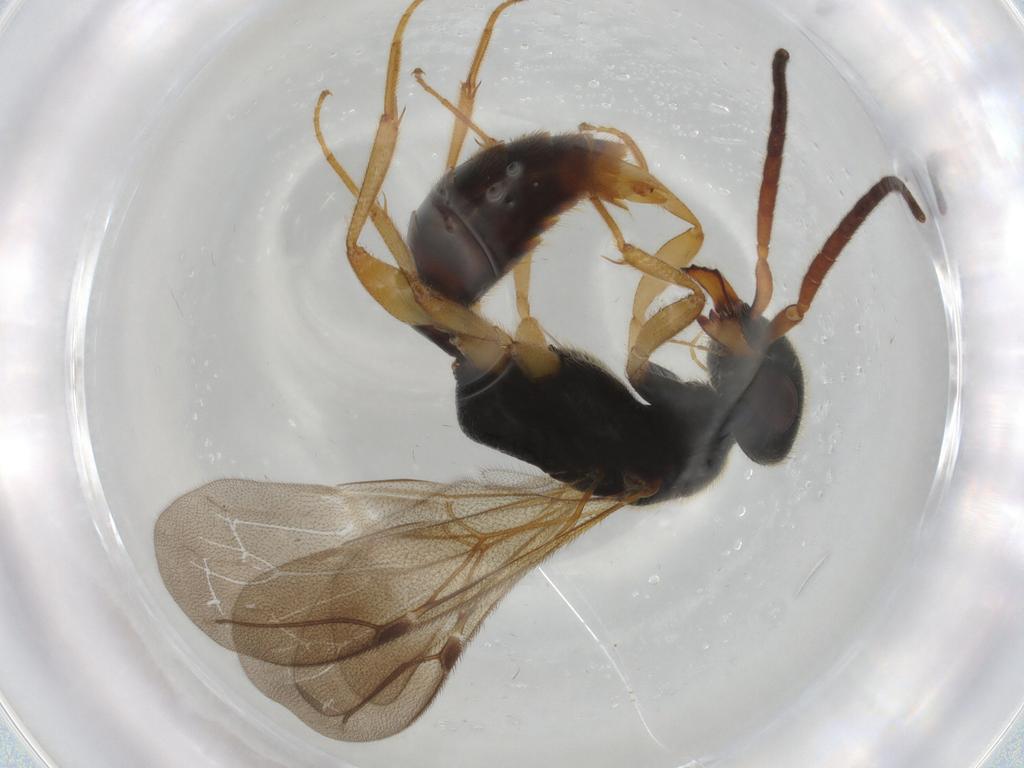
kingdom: Animalia
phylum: Arthropoda
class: Insecta
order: Hymenoptera
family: Bethylidae
